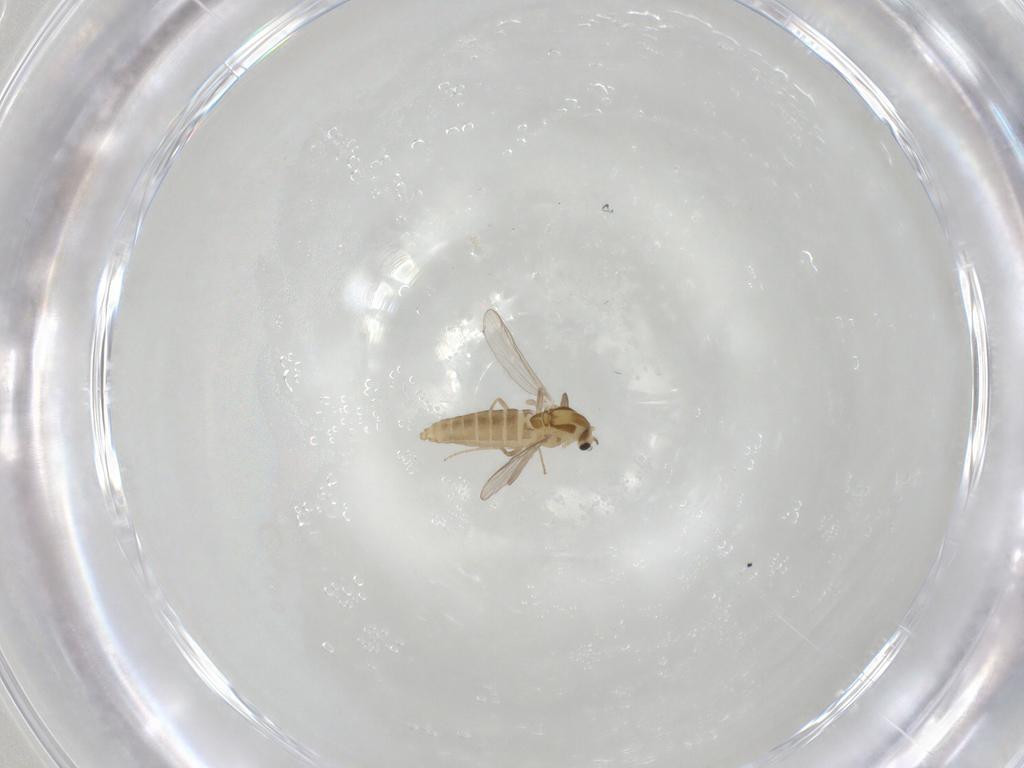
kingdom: Animalia
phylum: Arthropoda
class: Insecta
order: Diptera
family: Chironomidae
